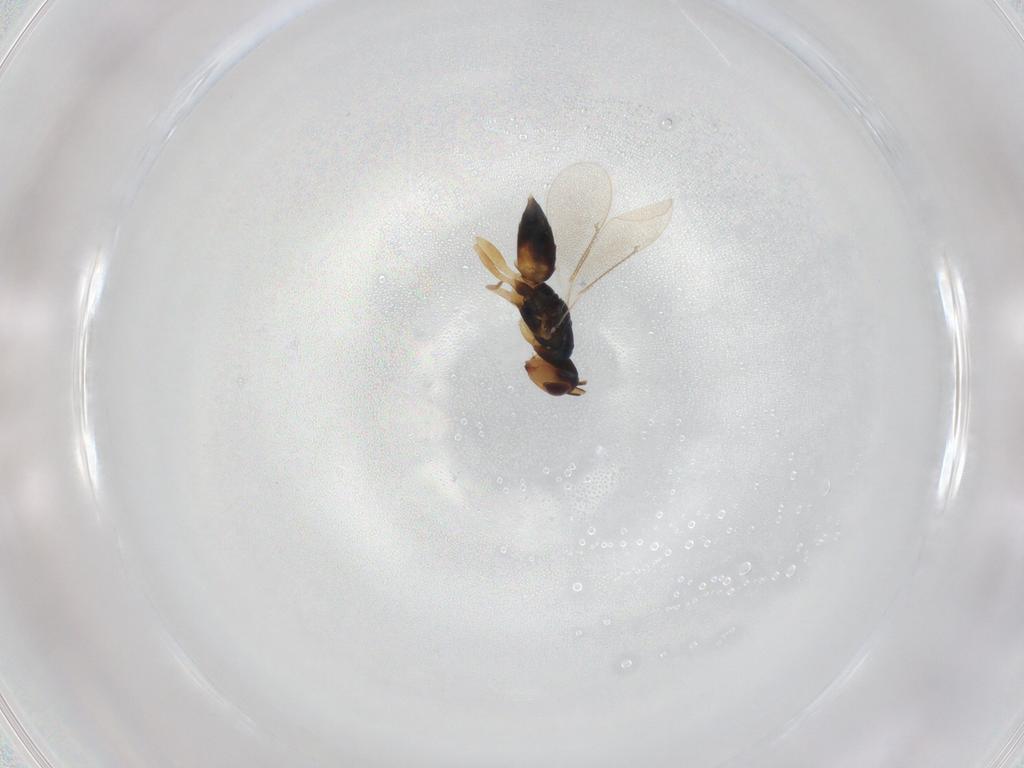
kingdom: Animalia
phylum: Arthropoda
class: Insecta
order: Hymenoptera
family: Eulophidae
